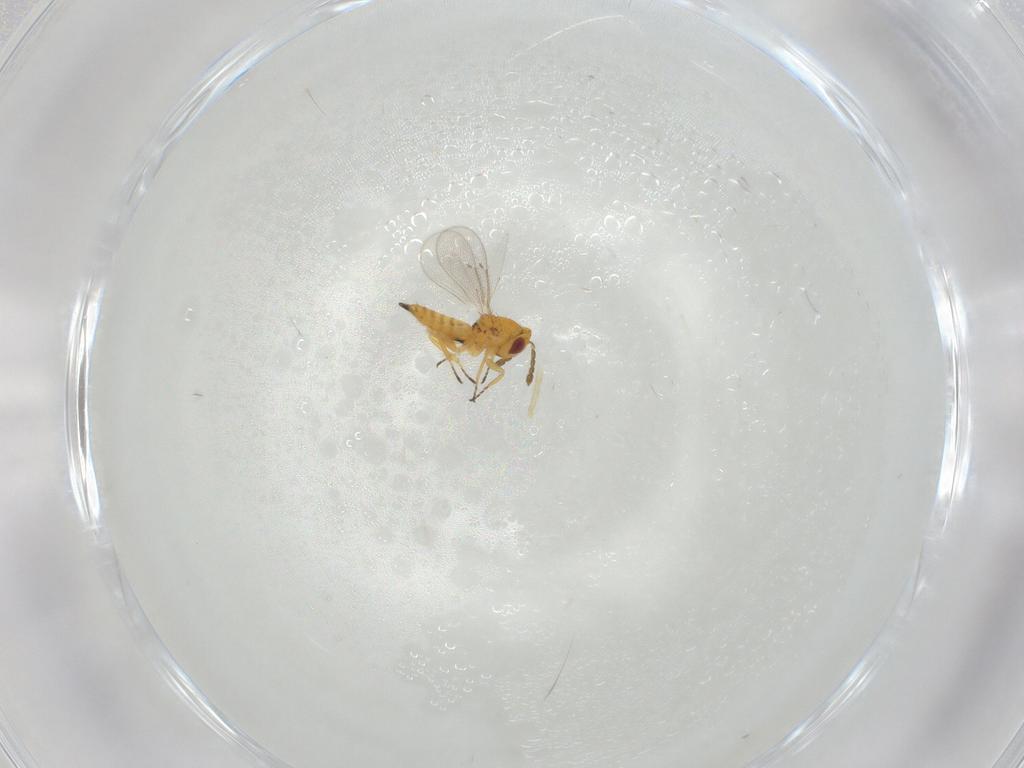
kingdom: Animalia
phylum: Arthropoda
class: Insecta
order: Hymenoptera
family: Eulophidae
